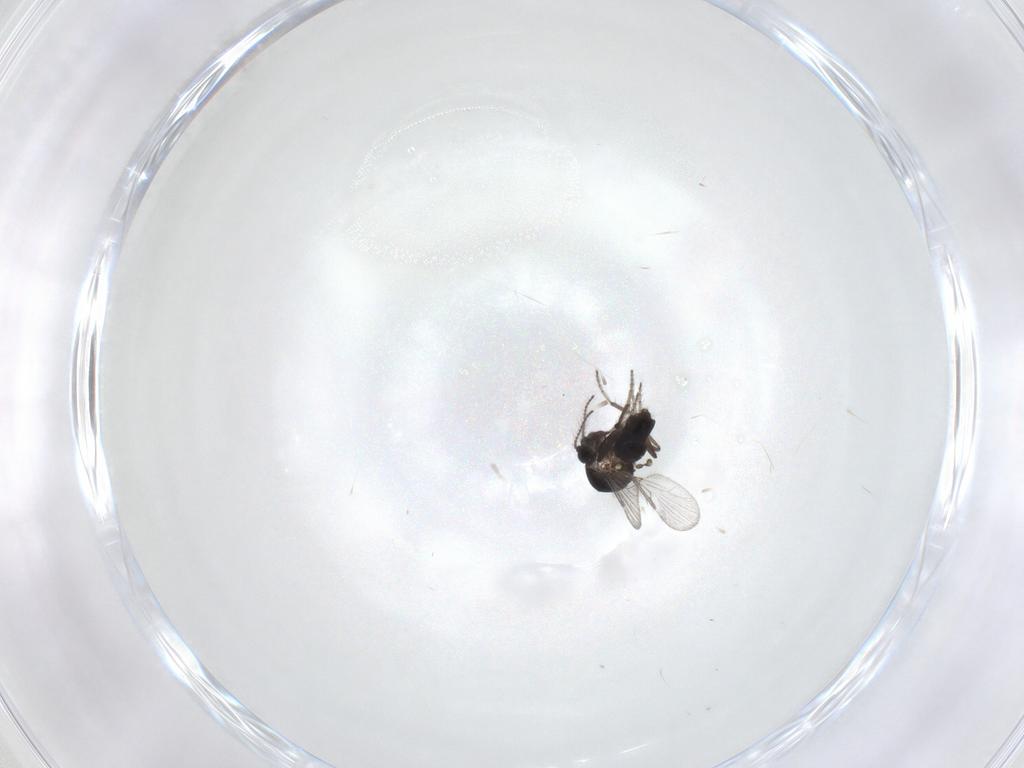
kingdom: Animalia
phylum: Arthropoda
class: Insecta
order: Diptera
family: Ceratopogonidae
